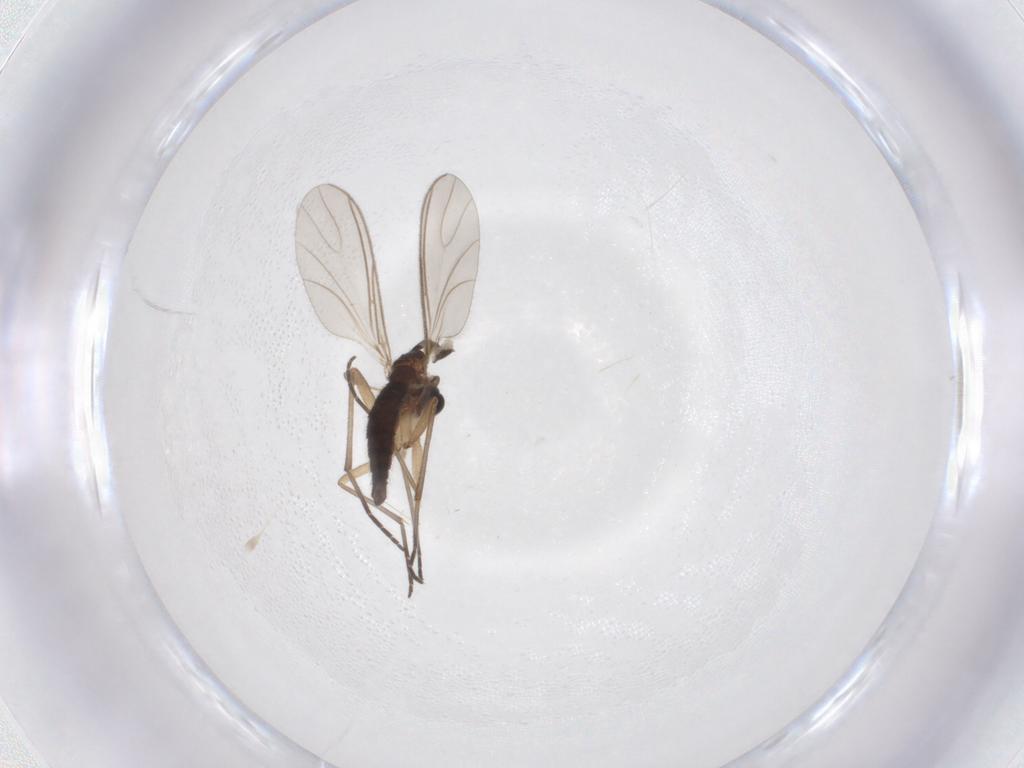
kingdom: Animalia
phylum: Arthropoda
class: Insecta
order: Diptera
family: Sciaridae
